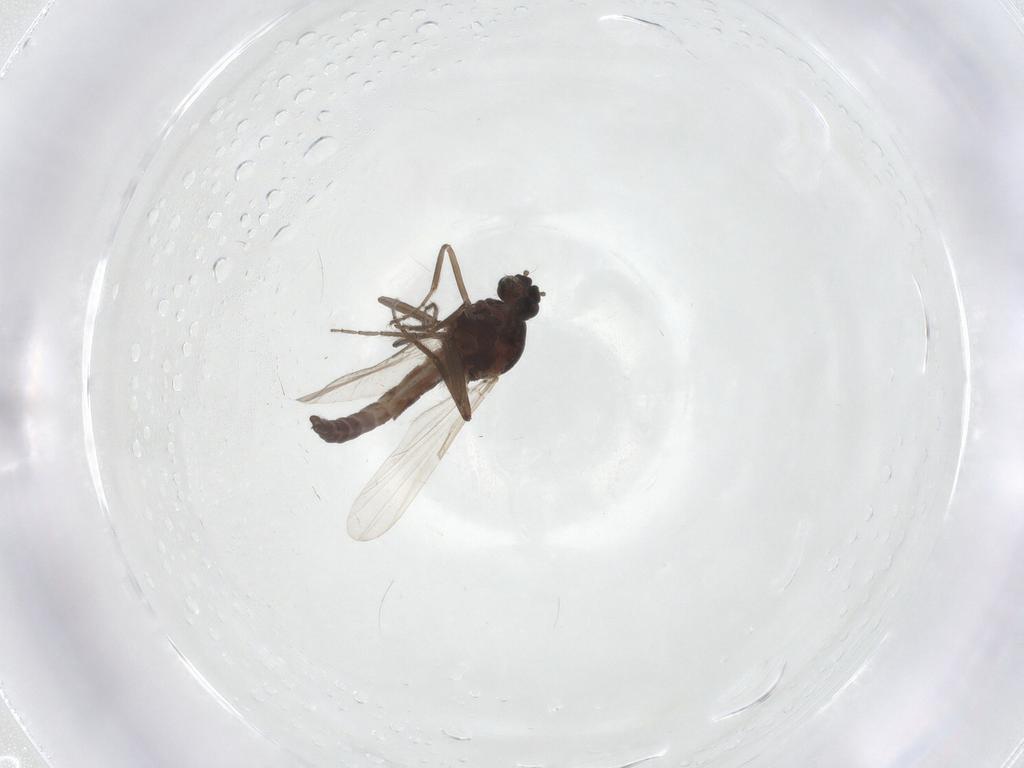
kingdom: Animalia
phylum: Arthropoda
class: Insecta
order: Diptera
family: Ceratopogonidae
